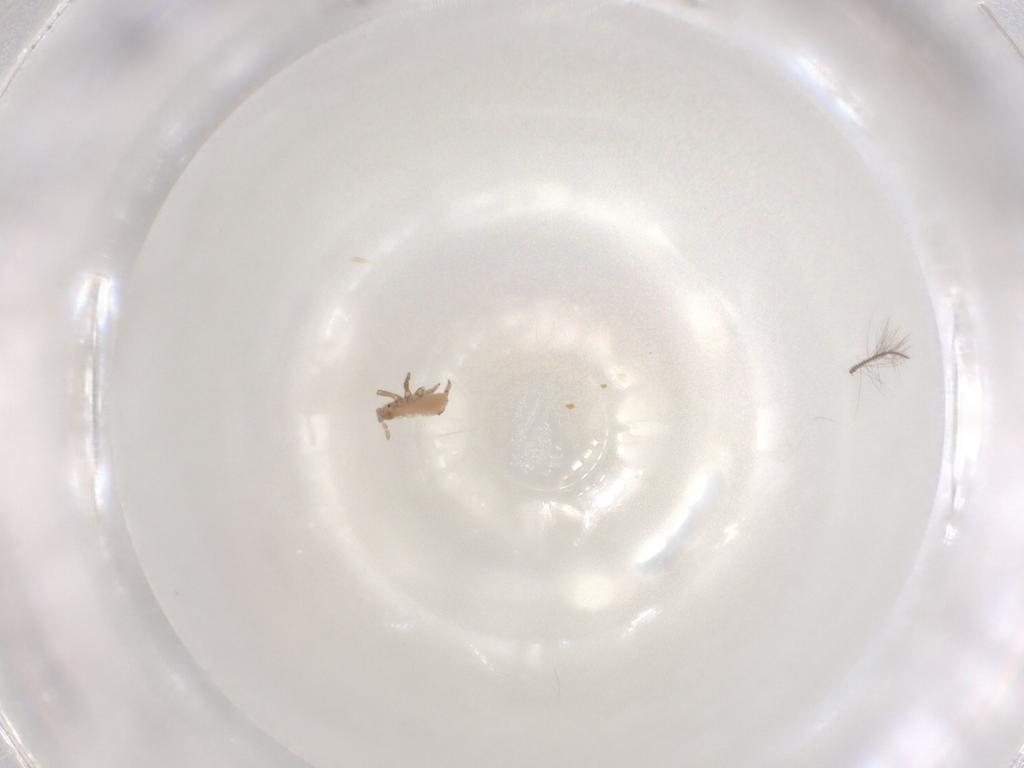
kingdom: Animalia
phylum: Arthropoda
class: Insecta
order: Hemiptera
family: Aphididae
